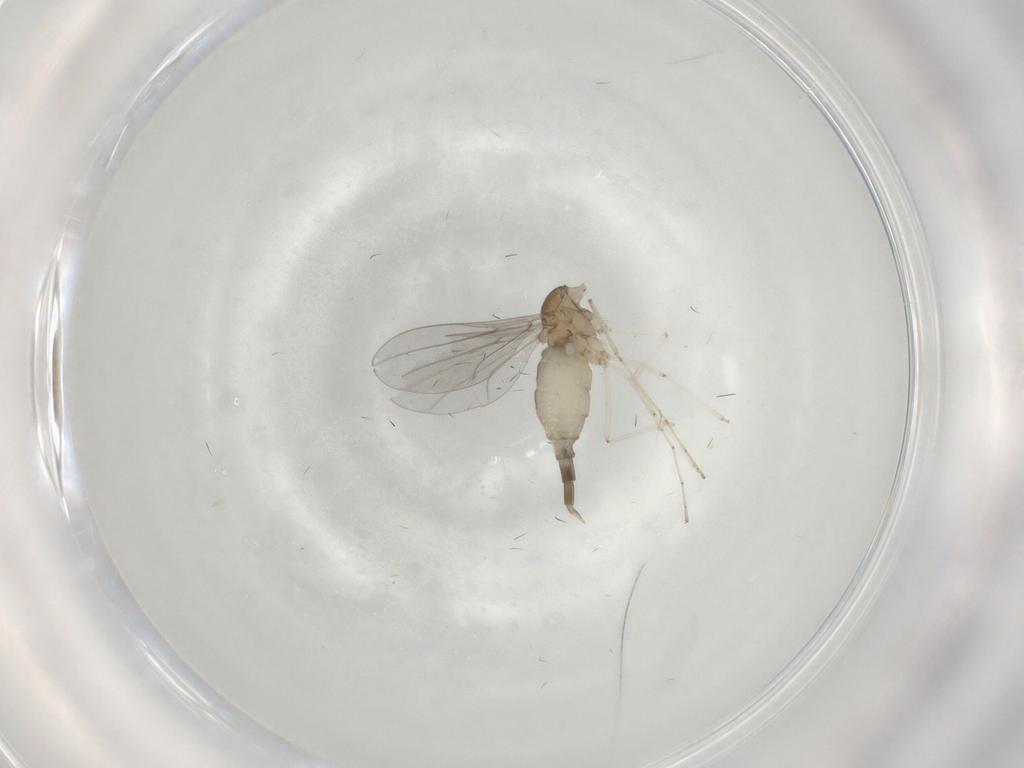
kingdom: Animalia
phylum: Arthropoda
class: Insecta
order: Diptera
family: Cecidomyiidae
